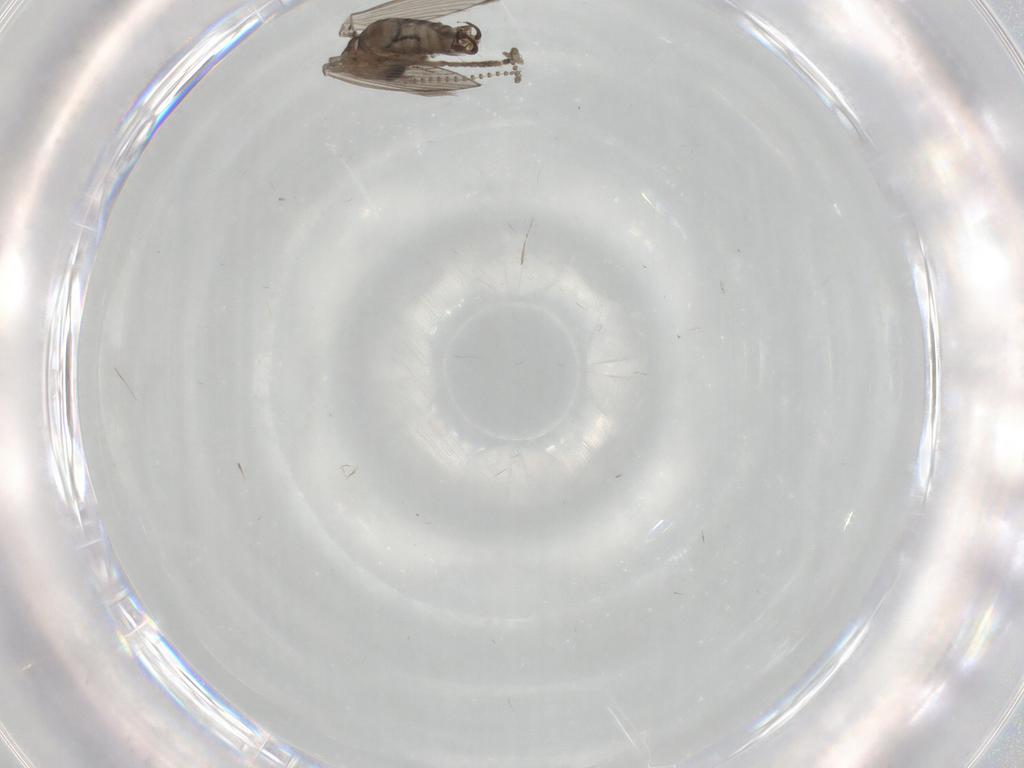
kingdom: Animalia
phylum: Arthropoda
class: Insecta
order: Diptera
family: Psychodidae
